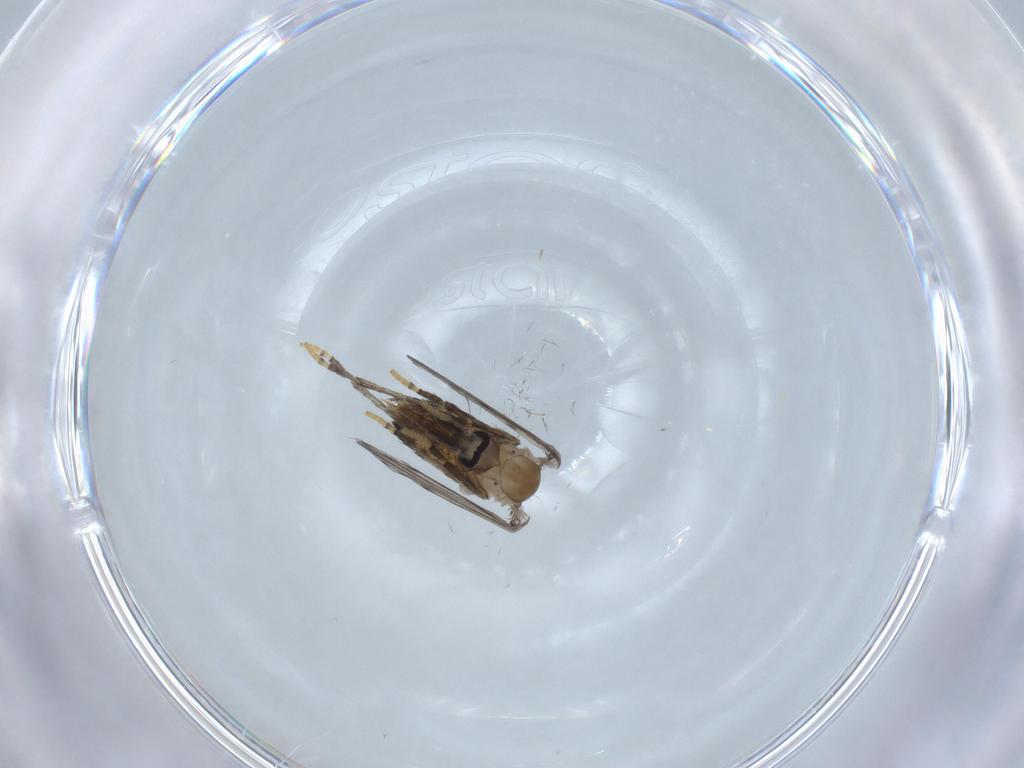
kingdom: Animalia
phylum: Arthropoda
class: Insecta
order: Diptera
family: Psychodidae
